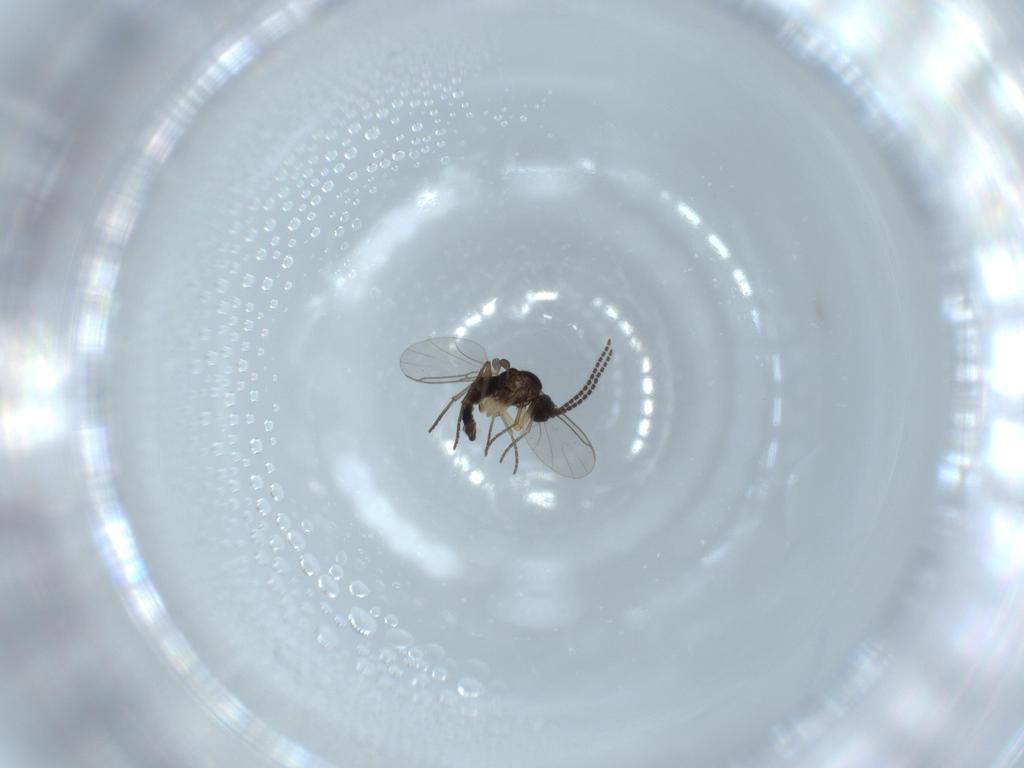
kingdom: Animalia
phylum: Arthropoda
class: Insecta
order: Diptera
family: Sciaridae
